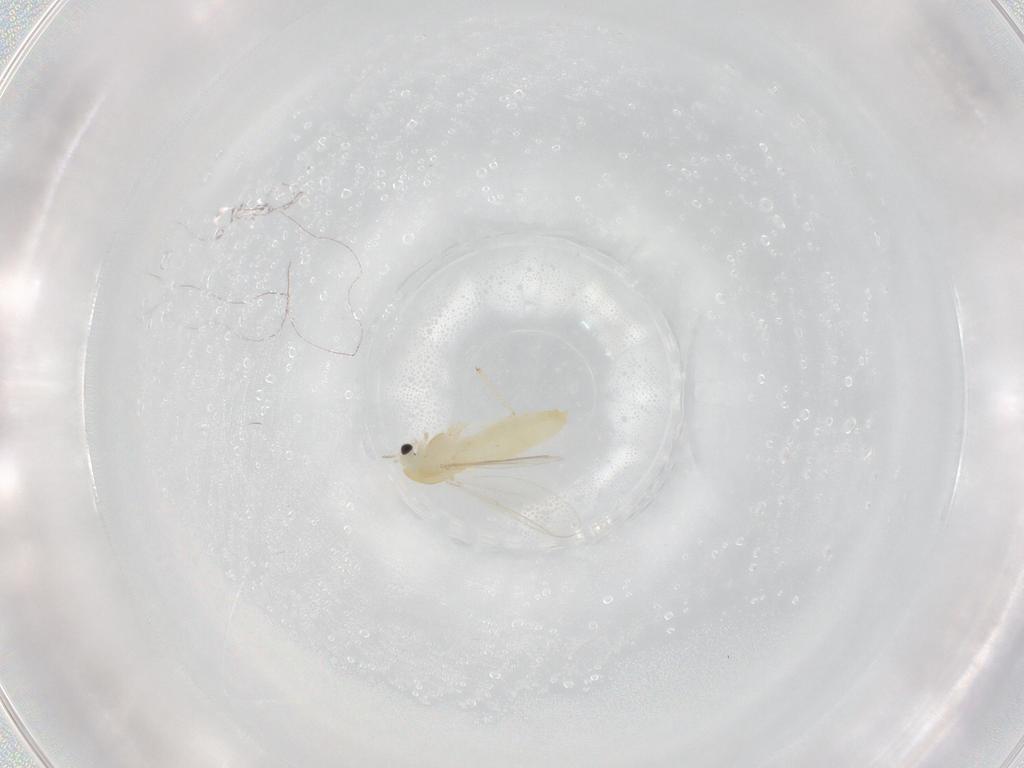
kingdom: Animalia
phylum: Arthropoda
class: Insecta
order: Diptera
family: Chironomidae
